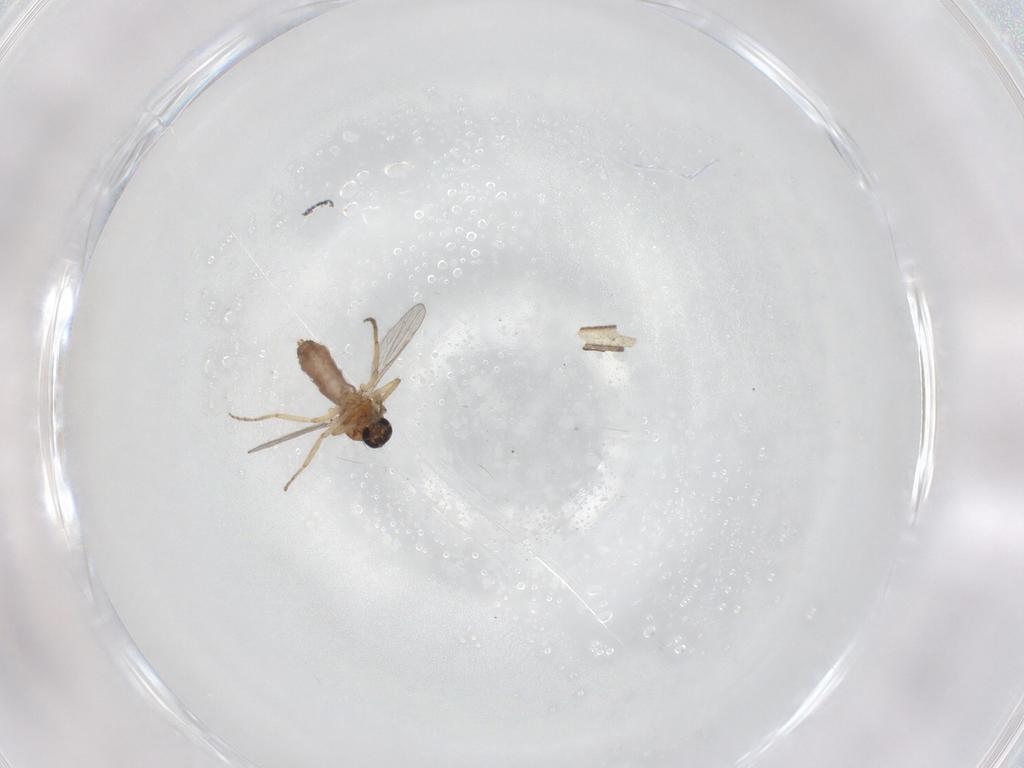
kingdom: Animalia
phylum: Arthropoda
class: Insecta
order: Diptera
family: Ceratopogonidae
